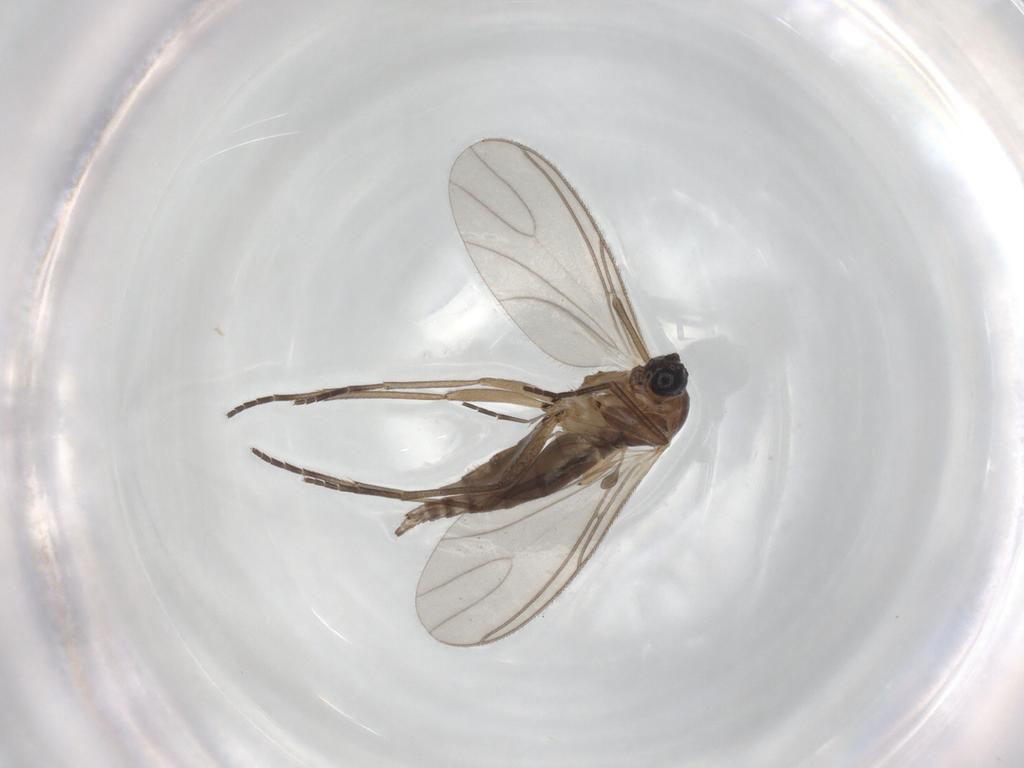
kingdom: Animalia
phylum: Arthropoda
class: Insecta
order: Diptera
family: Sciaridae
